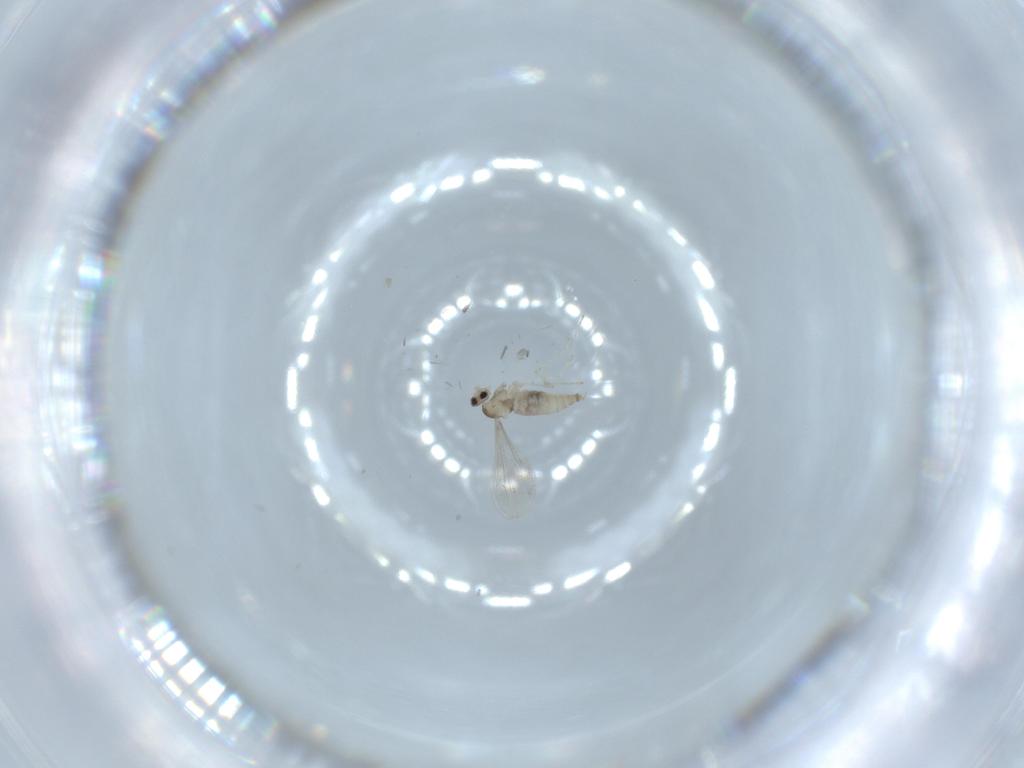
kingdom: Animalia
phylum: Arthropoda
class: Insecta
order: Diptera
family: Cecidomyiidae
